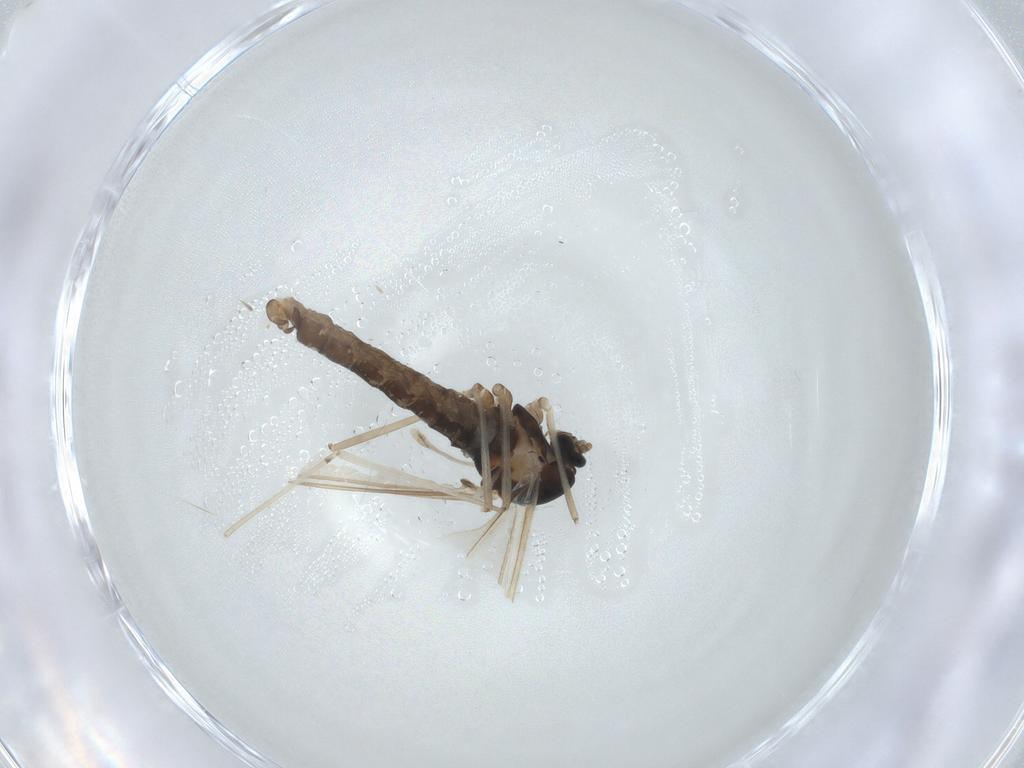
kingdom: Animalia
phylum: Arthropoda
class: Insecta
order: Diptera
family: Cecidomyiidae
